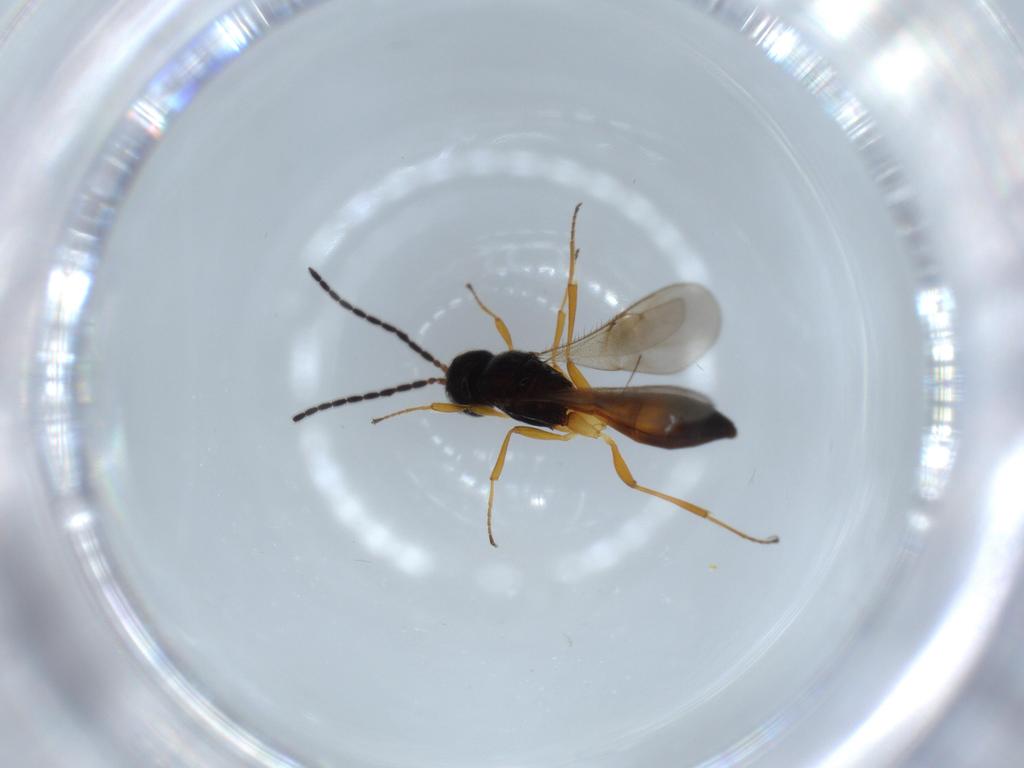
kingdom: Animalia
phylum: Arthropoda
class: Insecta
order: Hymenoptera
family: Scelionidae
